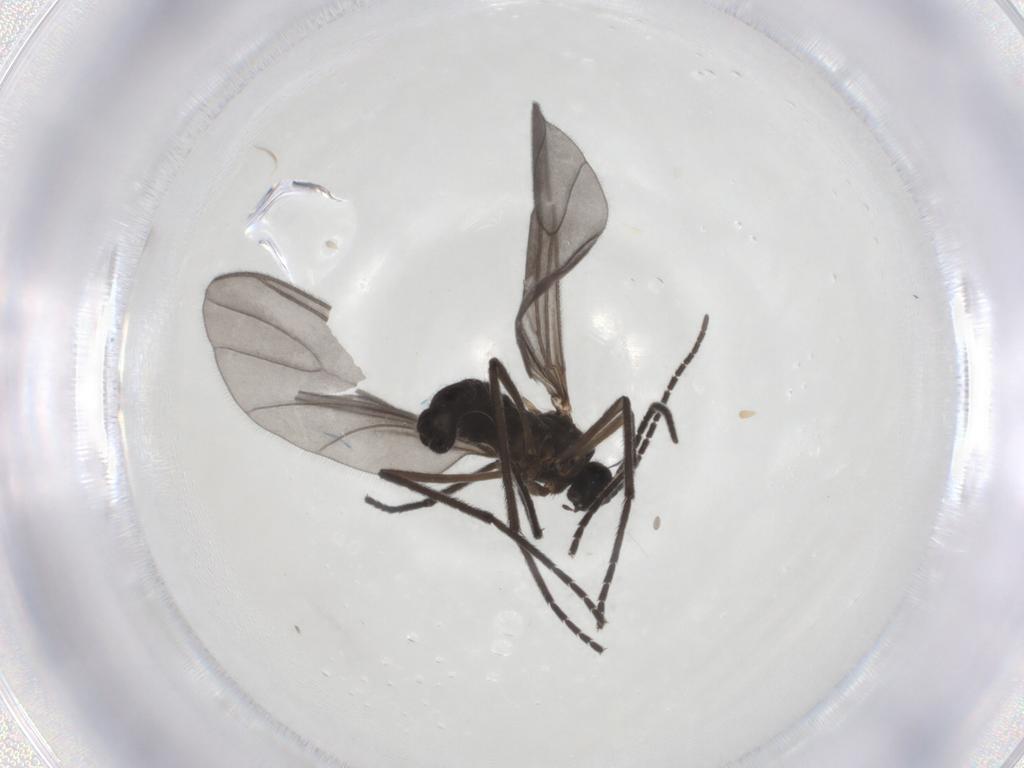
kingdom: Animalia
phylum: Arthropoda
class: Insecta
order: Diptera
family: Sciaridae
